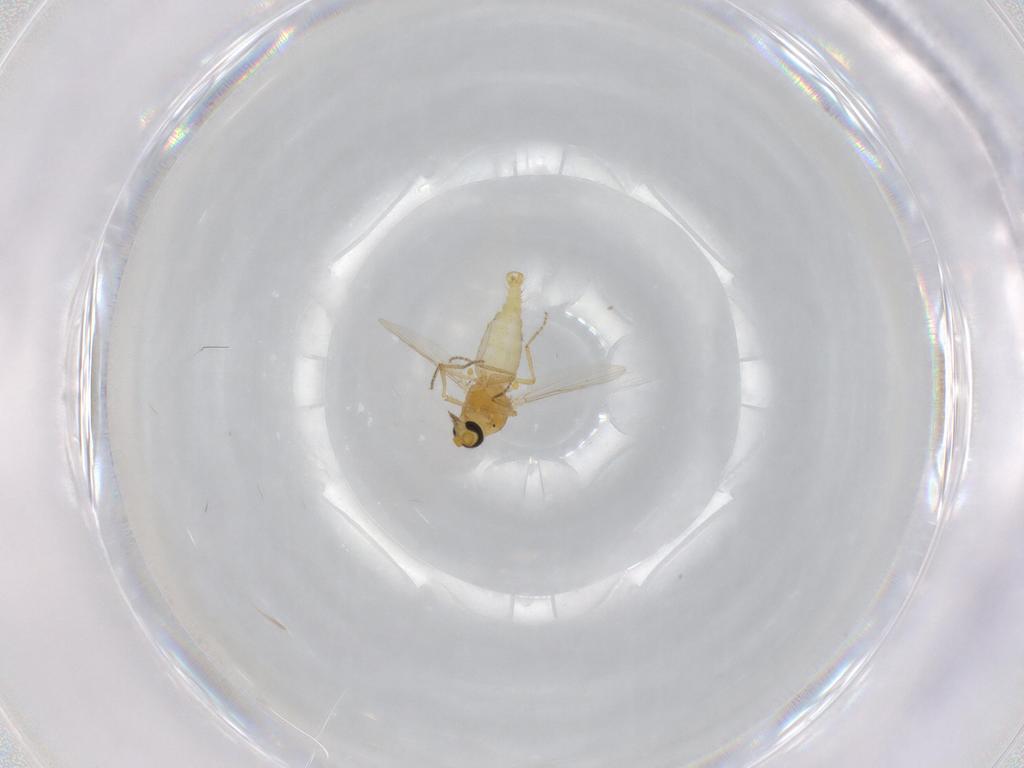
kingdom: Animalia
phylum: Arthropoda
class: Insecta
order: Diptera
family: Ceratopogonidae
